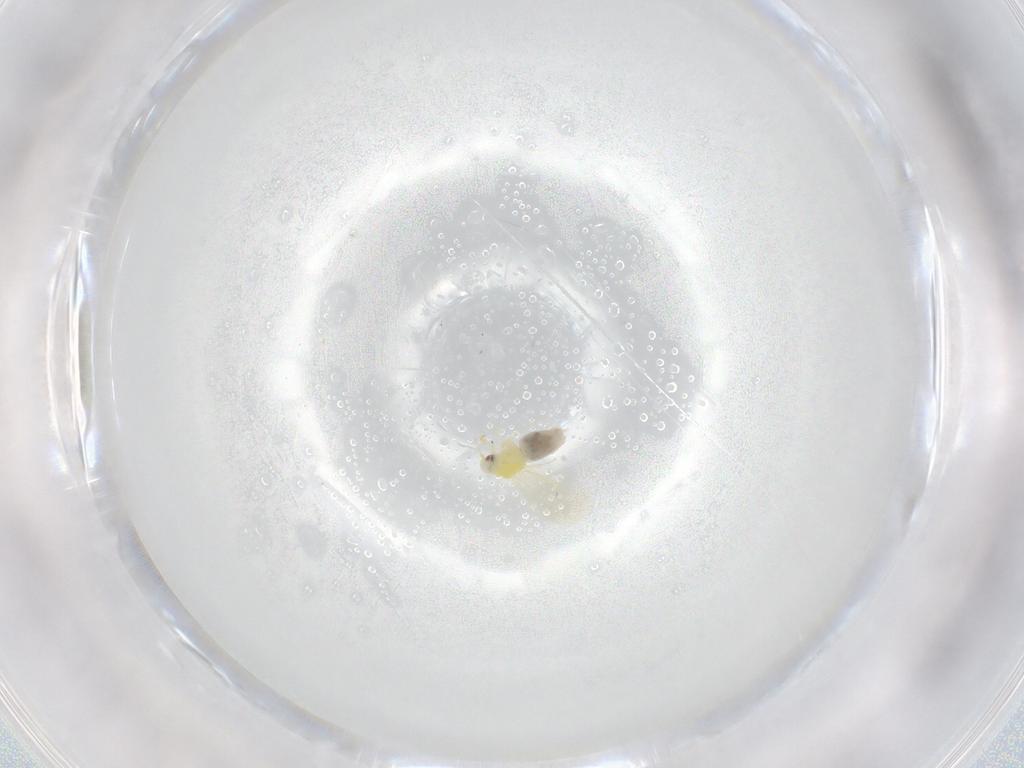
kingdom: Animalia
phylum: Arthropoda
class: Insecta
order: Hemiptera
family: Aleyrodidae
